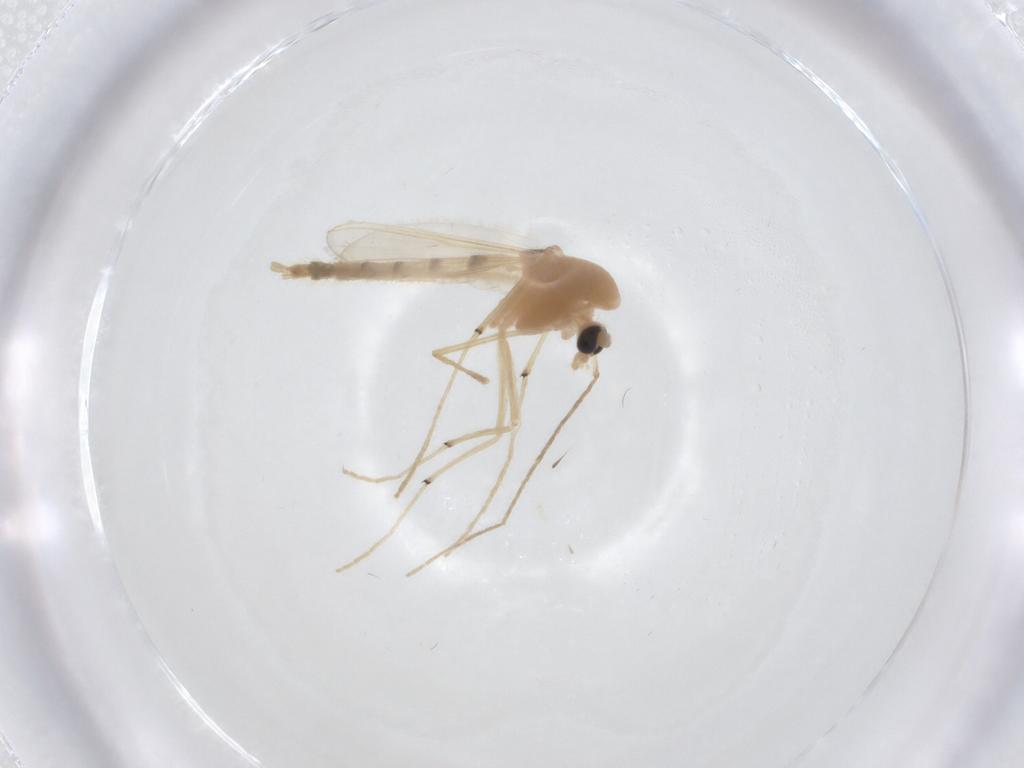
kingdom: Animalia
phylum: Arthropoda
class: Insecta
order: Diptera
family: Chironomidae
